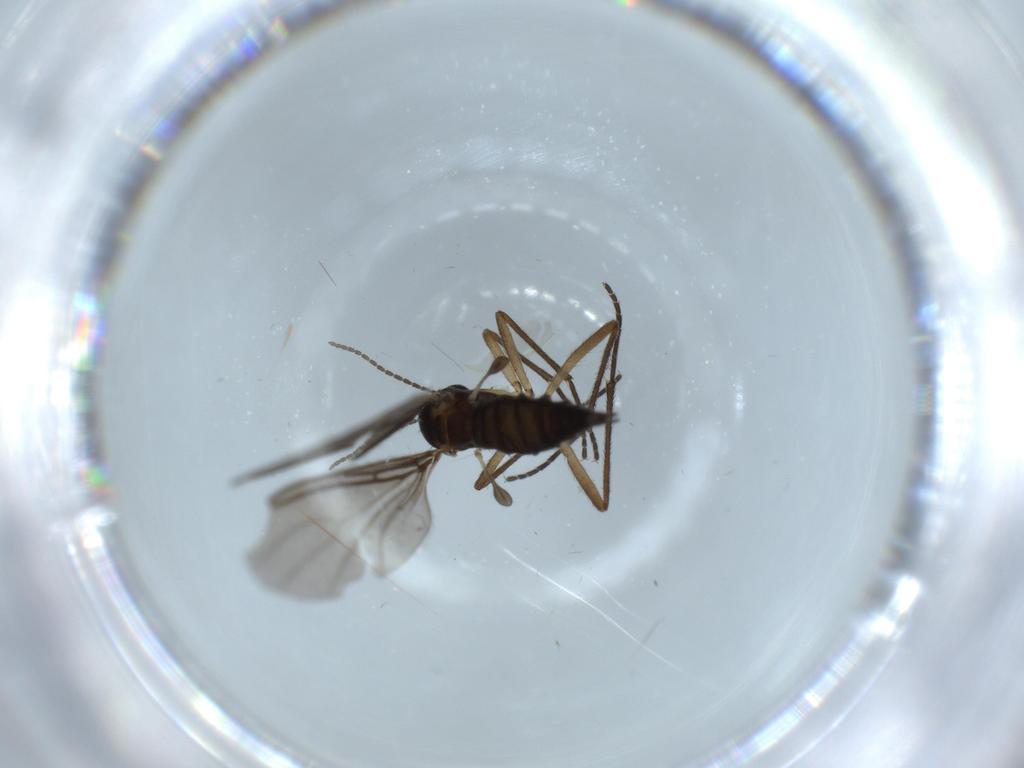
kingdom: Animalia
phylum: Arthropoda
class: Insecta
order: Diptera
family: Sciaridae
